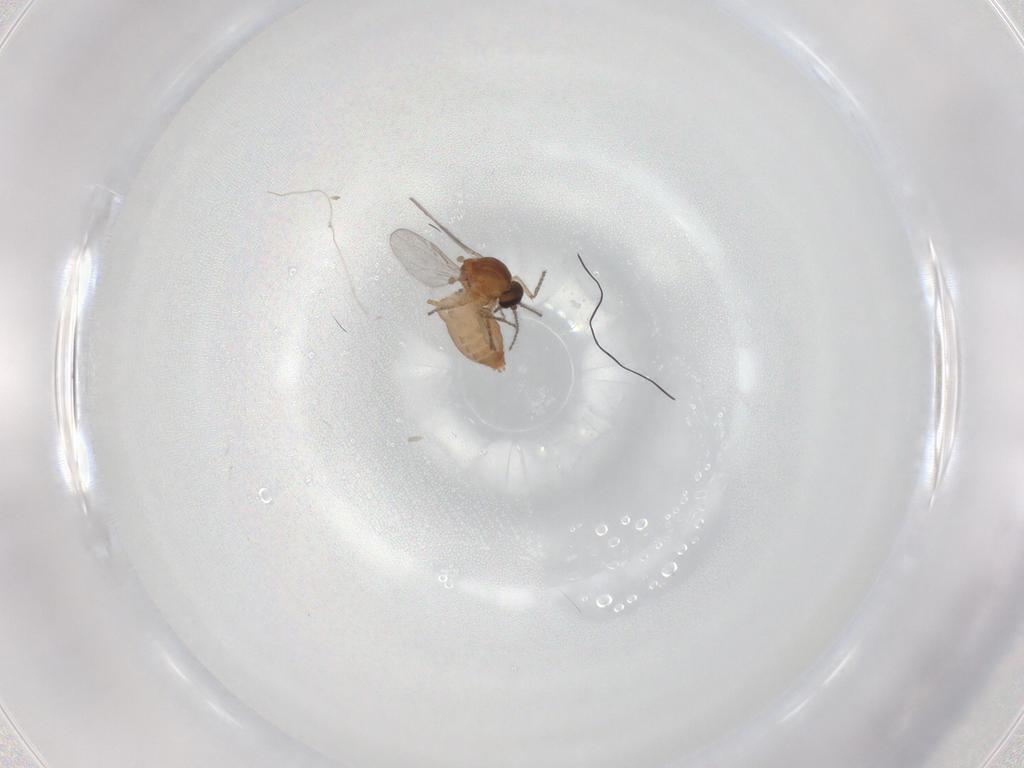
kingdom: Animalia
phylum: Arthropoda
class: Insecta
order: Diptera
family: Ceratopogonidae
